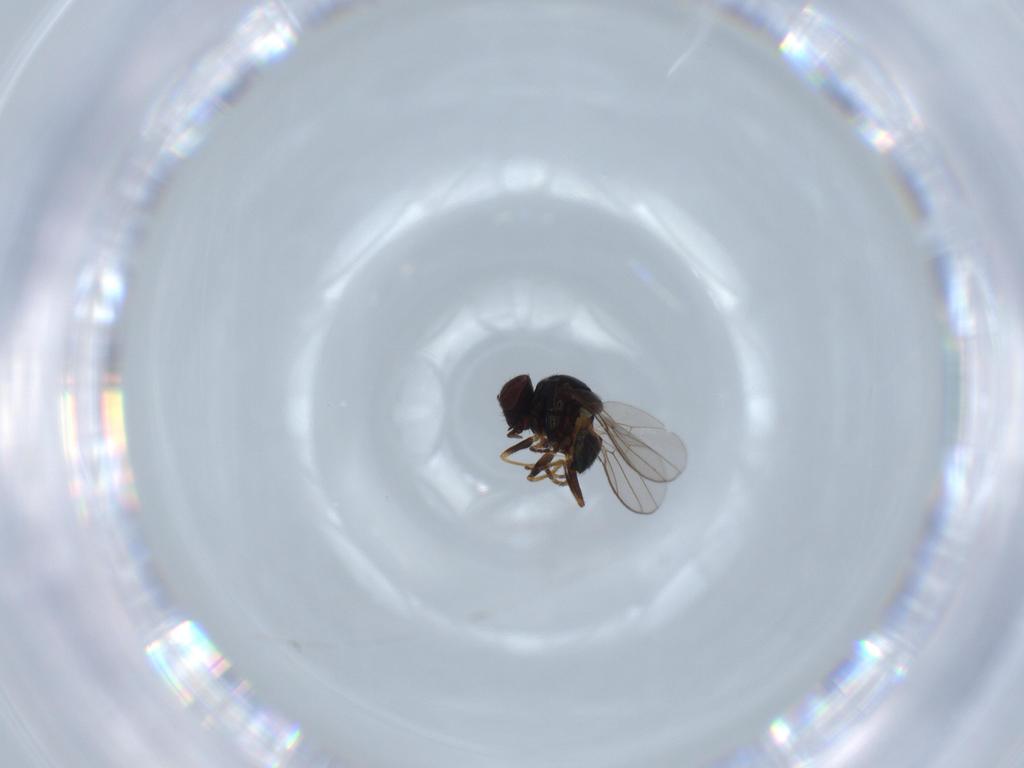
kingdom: Animalia
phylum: Arthropoda
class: Insecta
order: Diptera
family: Chloropidae
